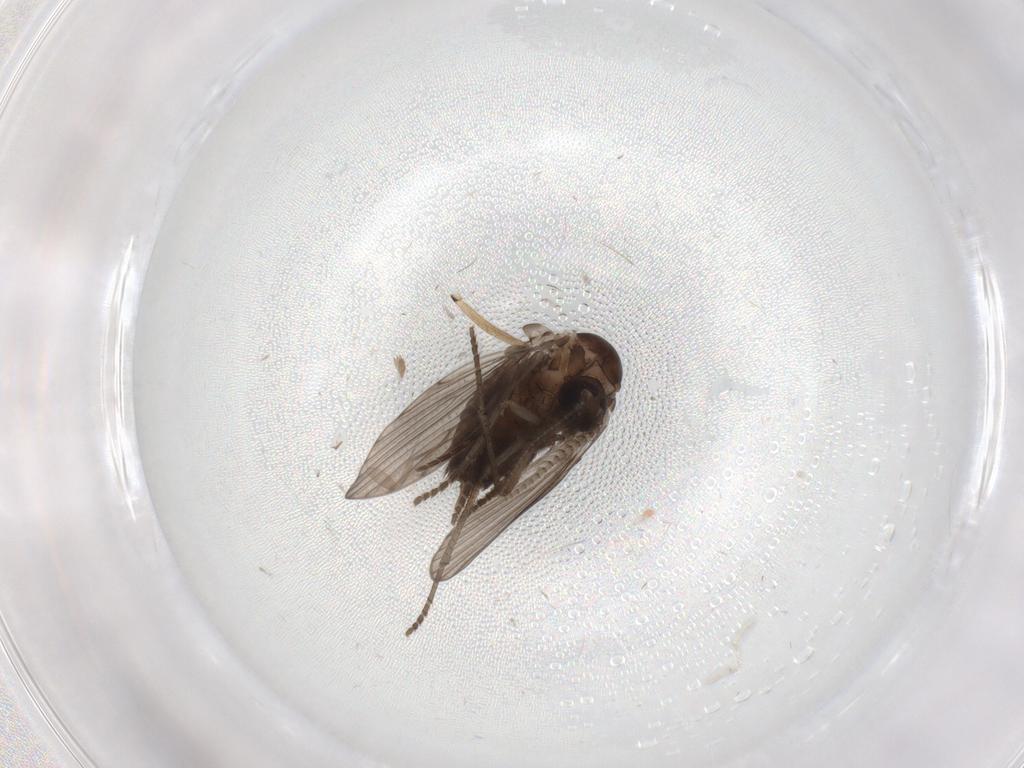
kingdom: Animalia
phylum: Arthropoda
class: Insecta
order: Diptera
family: Psychodidae
